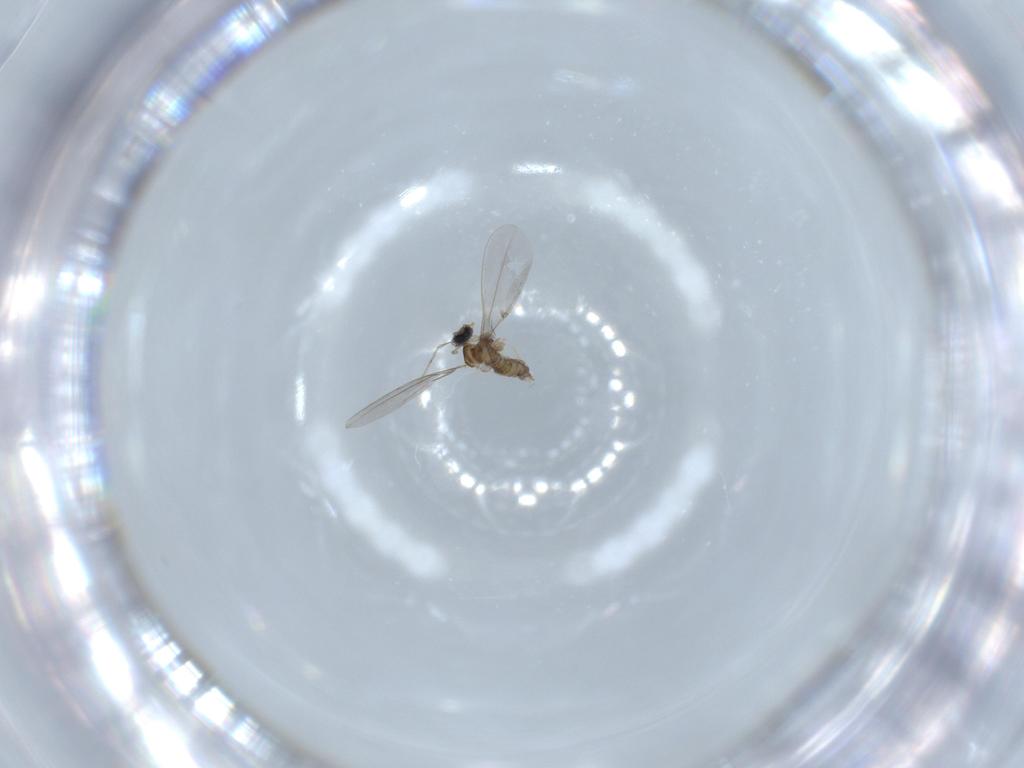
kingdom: Animalia
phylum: Arthropoda
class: Insecta
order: Diptera
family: Cecidomyiidae
